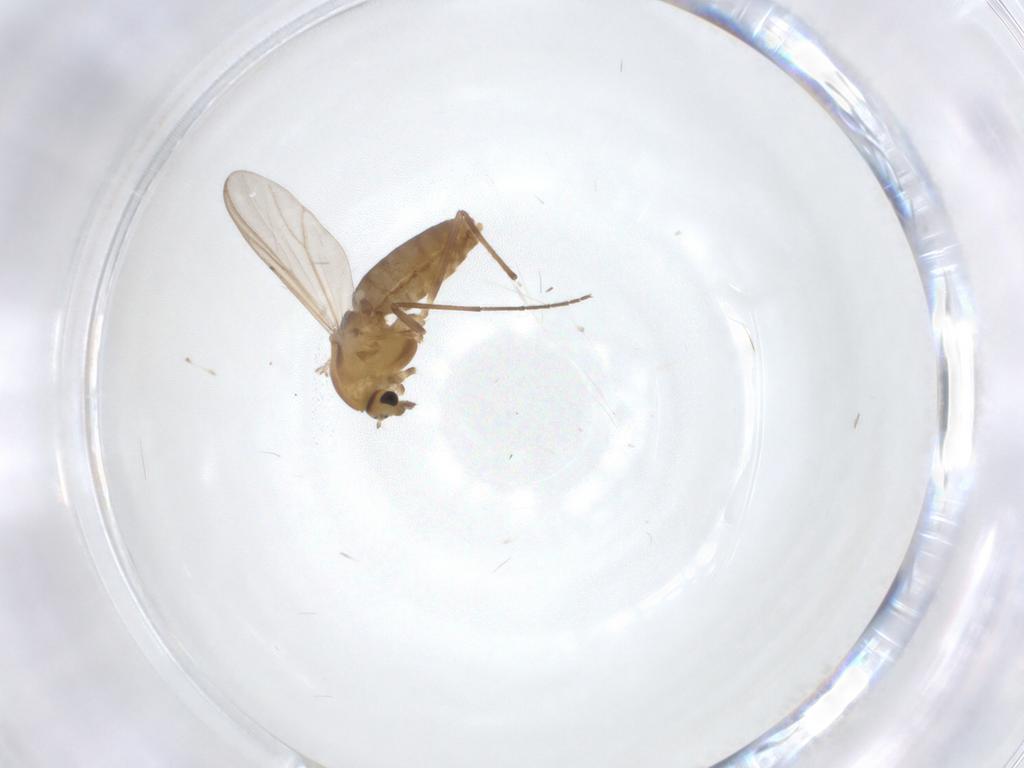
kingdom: Animalia
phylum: Arthropoda
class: Insecta
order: Diptera
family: Chironomidae
